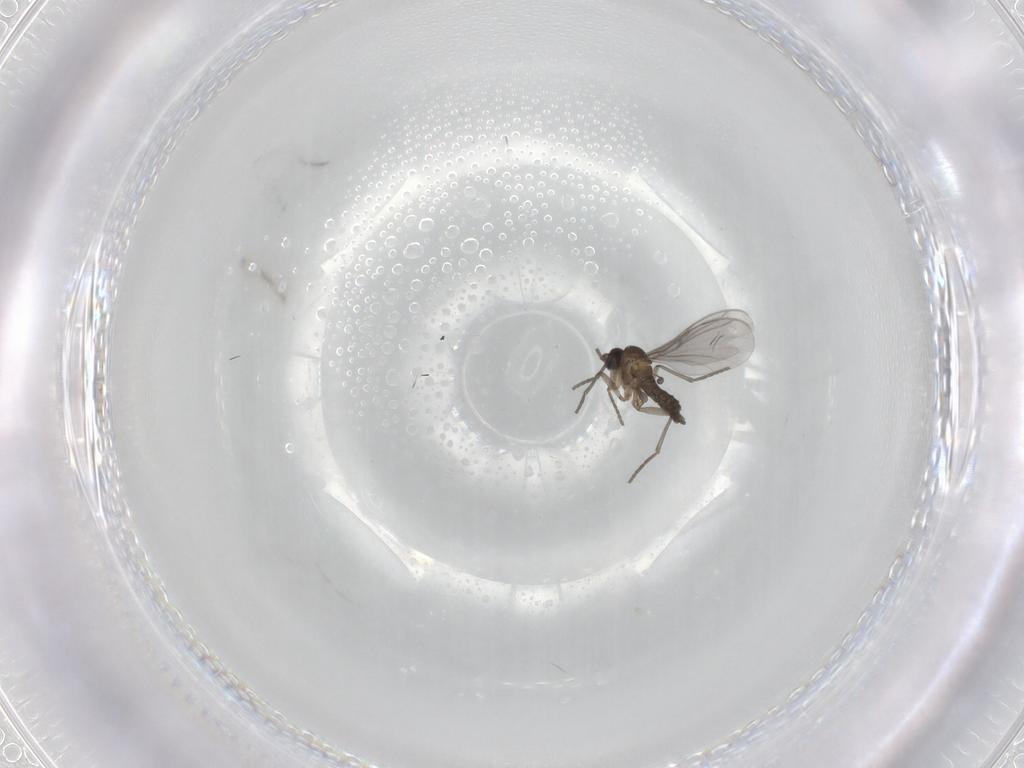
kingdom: Animalia
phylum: Arthropoda
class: Insecta
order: Diptera
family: Sciaridae
